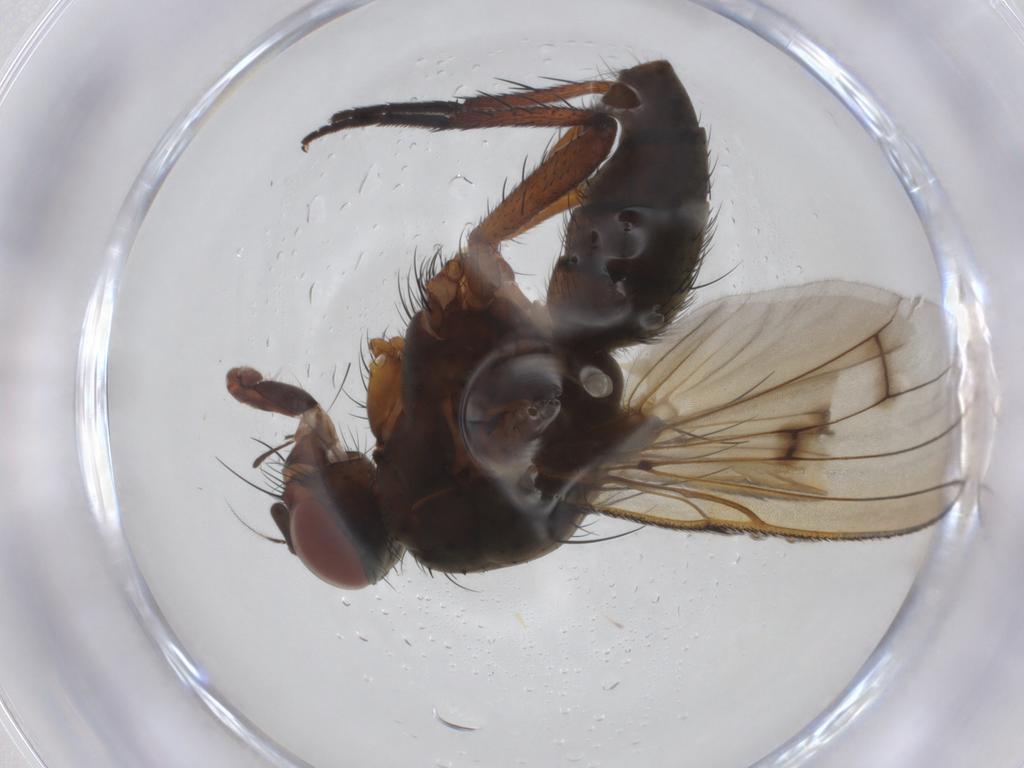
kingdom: Animalia
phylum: Arthropoda
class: Insecta
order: Diptera
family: Anthomyiidae
